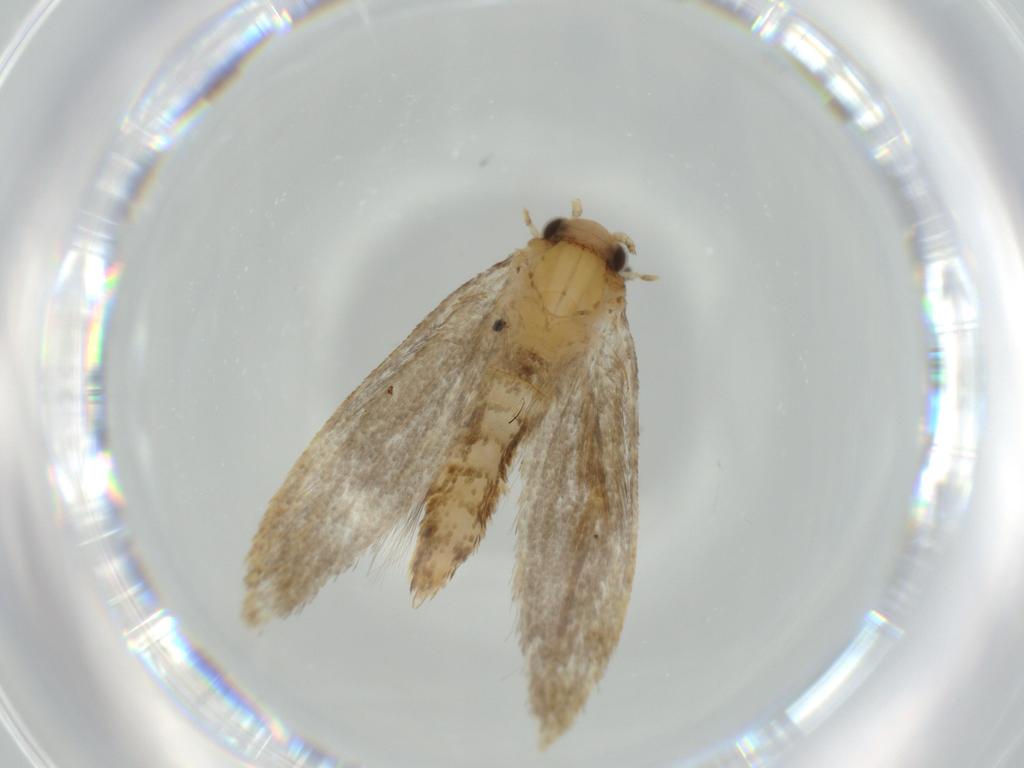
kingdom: Animalia
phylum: Arthropoda
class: Insecta
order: Lepidoptera
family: Tineidae
